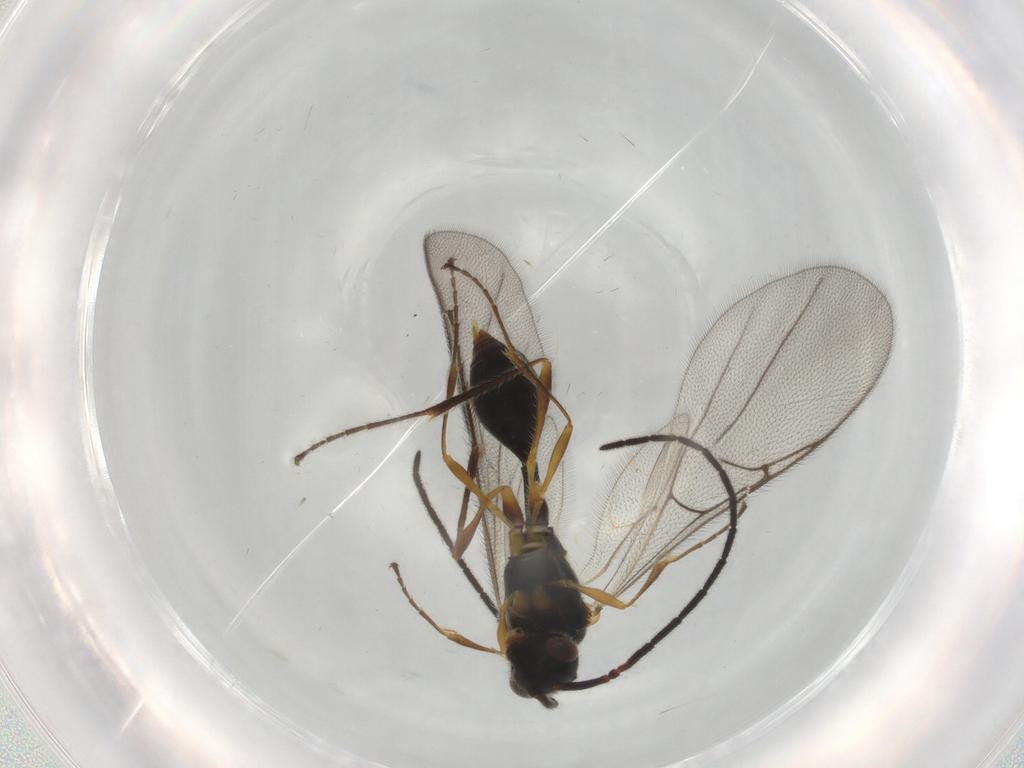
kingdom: Animalia
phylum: Arthropoda
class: Insecta
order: Hymenoptera
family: Diapriidae
